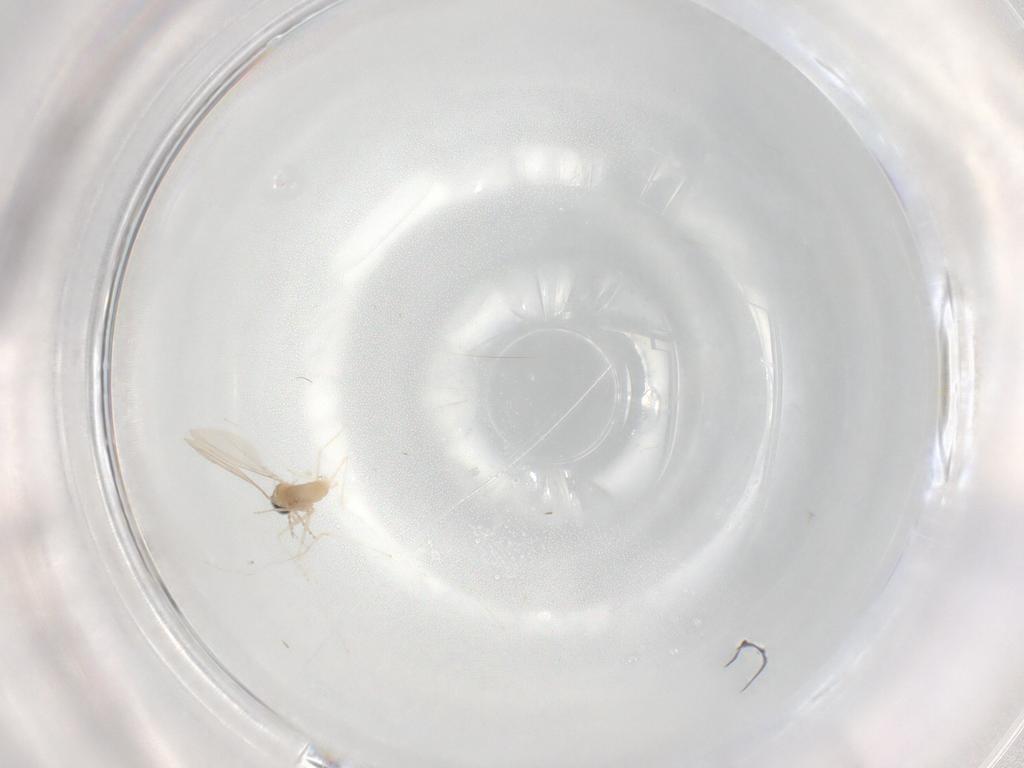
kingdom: Animalia
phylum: Arthropoda
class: Insecta
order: Diptera
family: Cecidomyiidae
